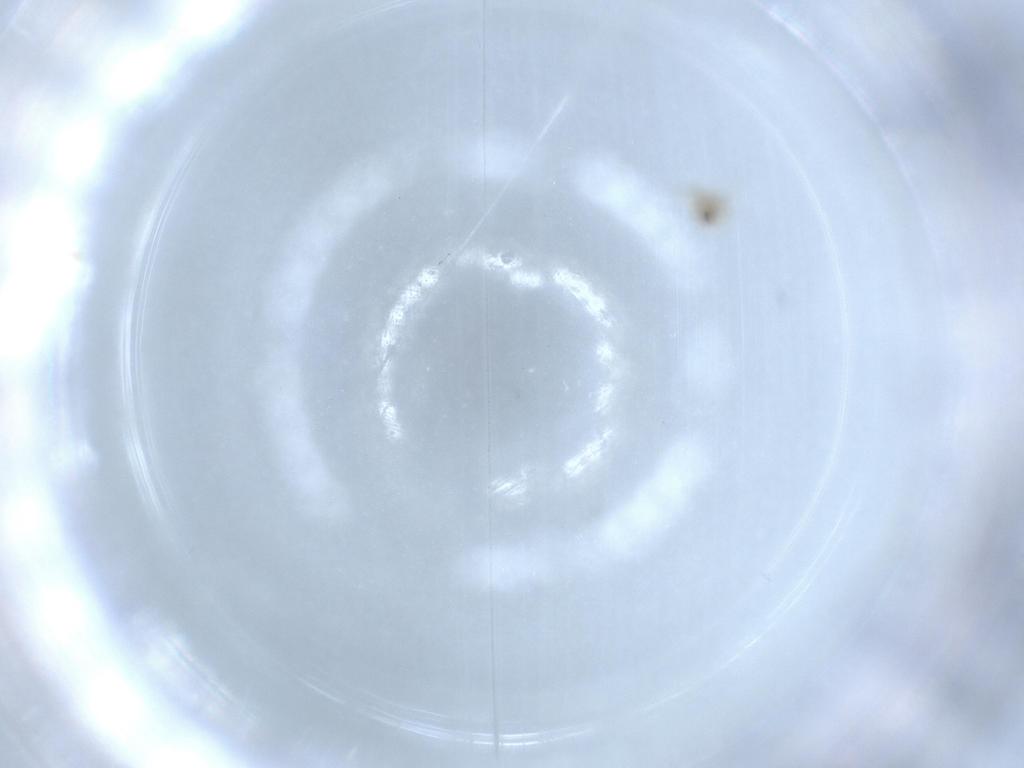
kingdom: Animalia
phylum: Arthropoda
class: Arachnida
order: Trombidiformes
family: Anystidae
